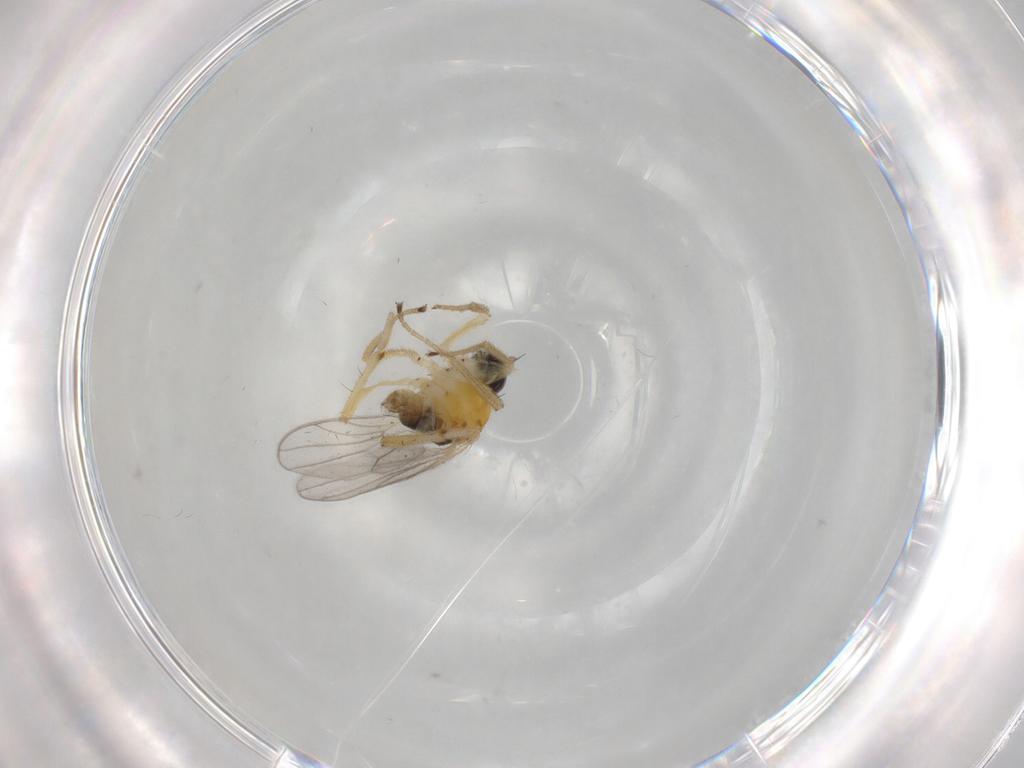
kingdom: Animalia
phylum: Arthropoda
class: Insecta
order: Diptera
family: Hybotidae
